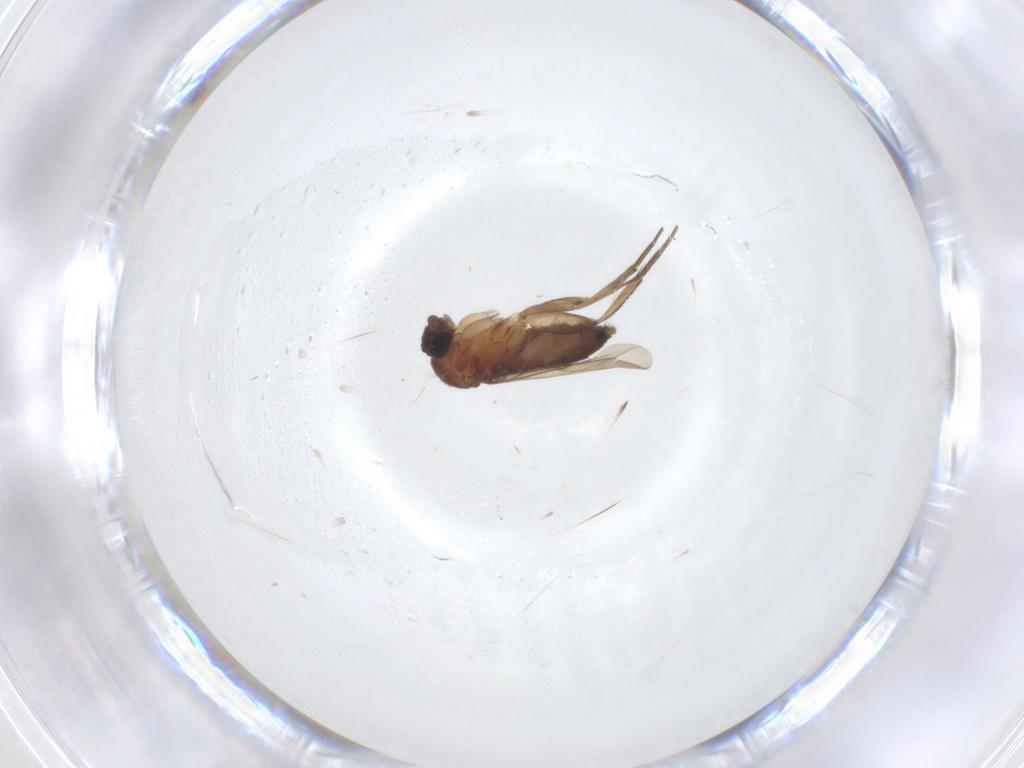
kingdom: Animalia
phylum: Arthropoda
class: Insecta
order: Diptera
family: Phoridae
